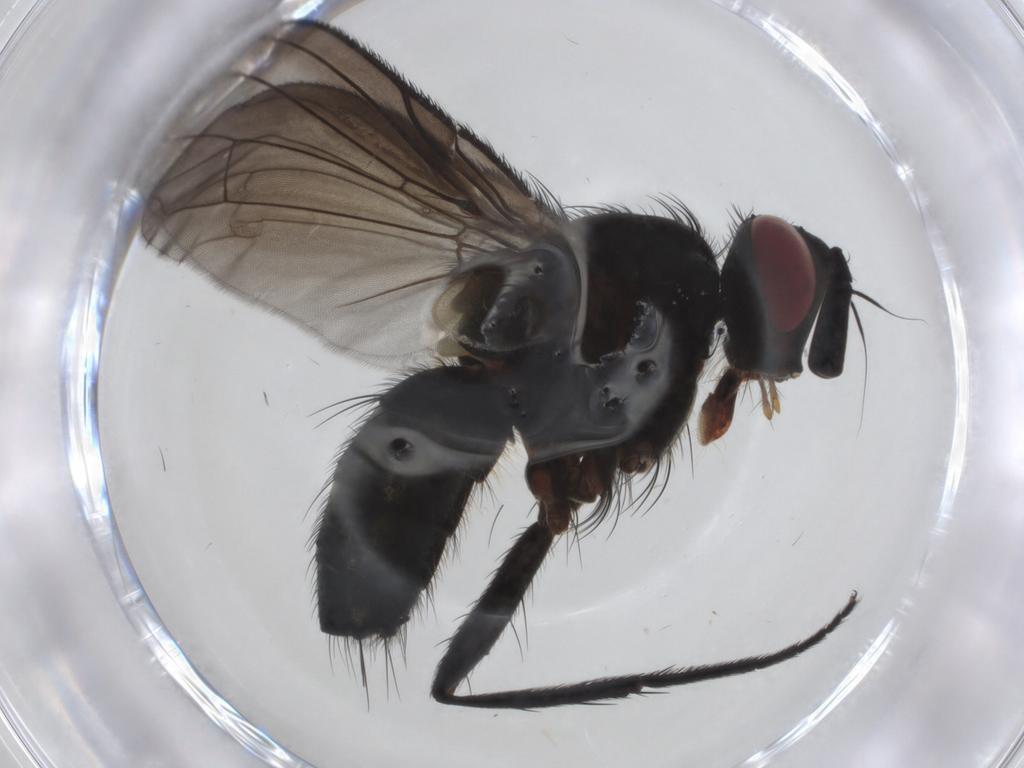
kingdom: Animalia
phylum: Arthropoda
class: Insecta
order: Diptera
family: Tachinidae
